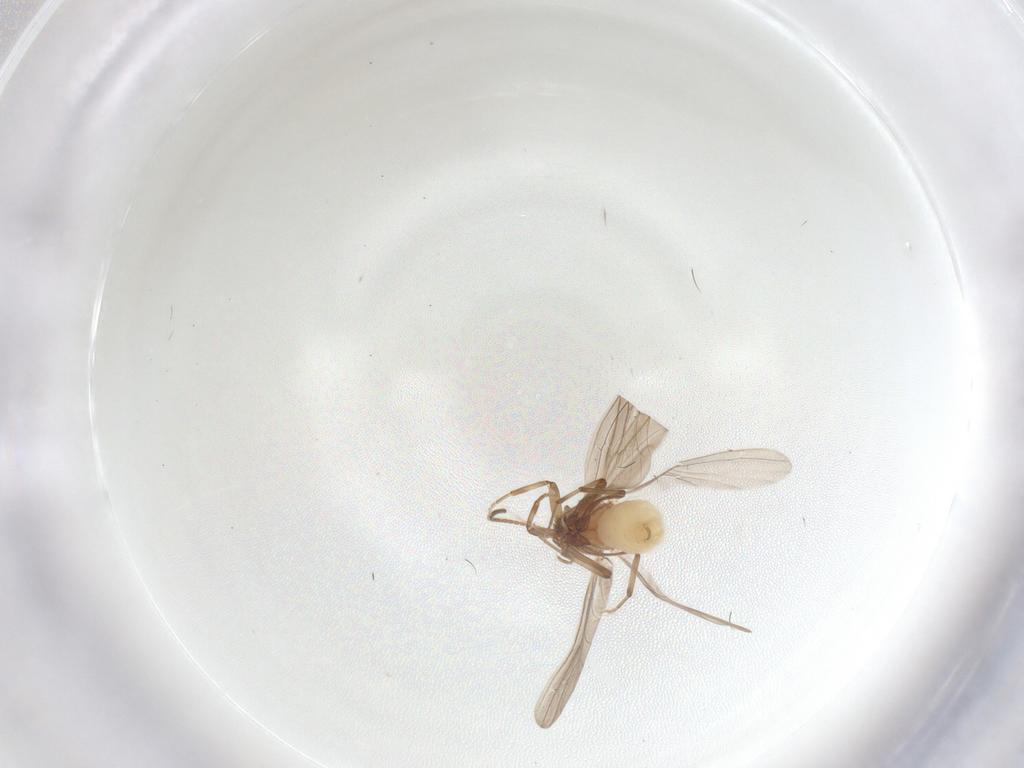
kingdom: Animalia
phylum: Arthropoda
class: Insecta
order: Neuroptera
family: Coniopterygidae
